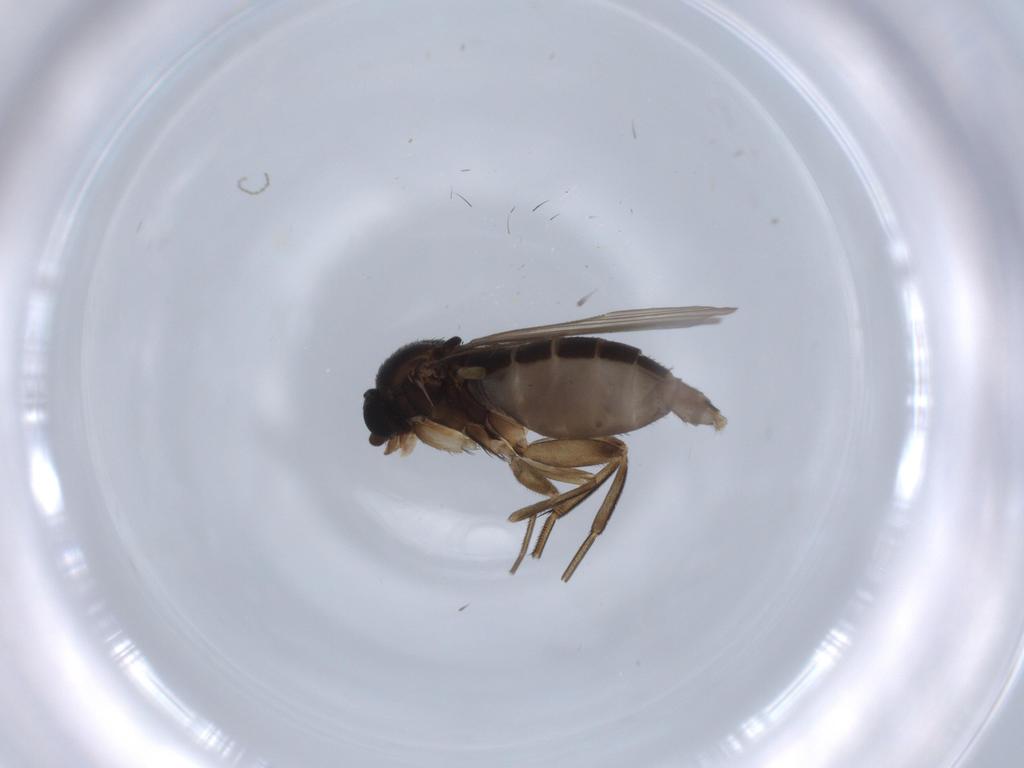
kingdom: Animalia
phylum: Arthropoda
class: Insecta
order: Diptera
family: Phoridae
